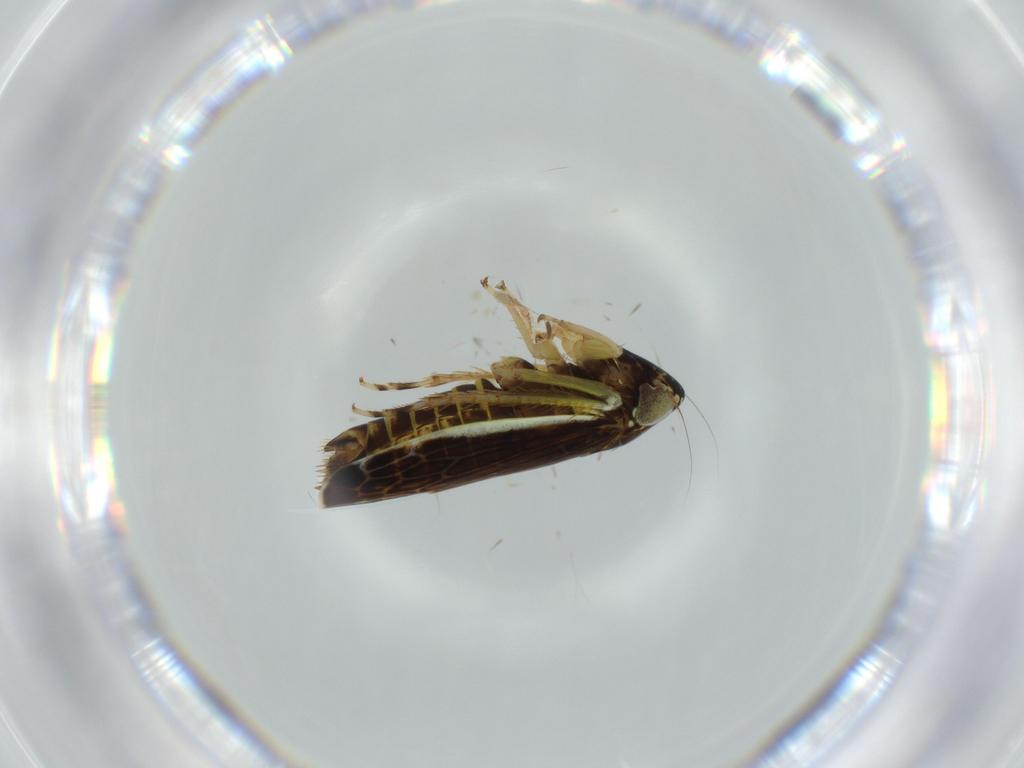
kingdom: Animalia
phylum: Arthropoda
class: Insecta
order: Hemiptera
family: Cicadellidae
